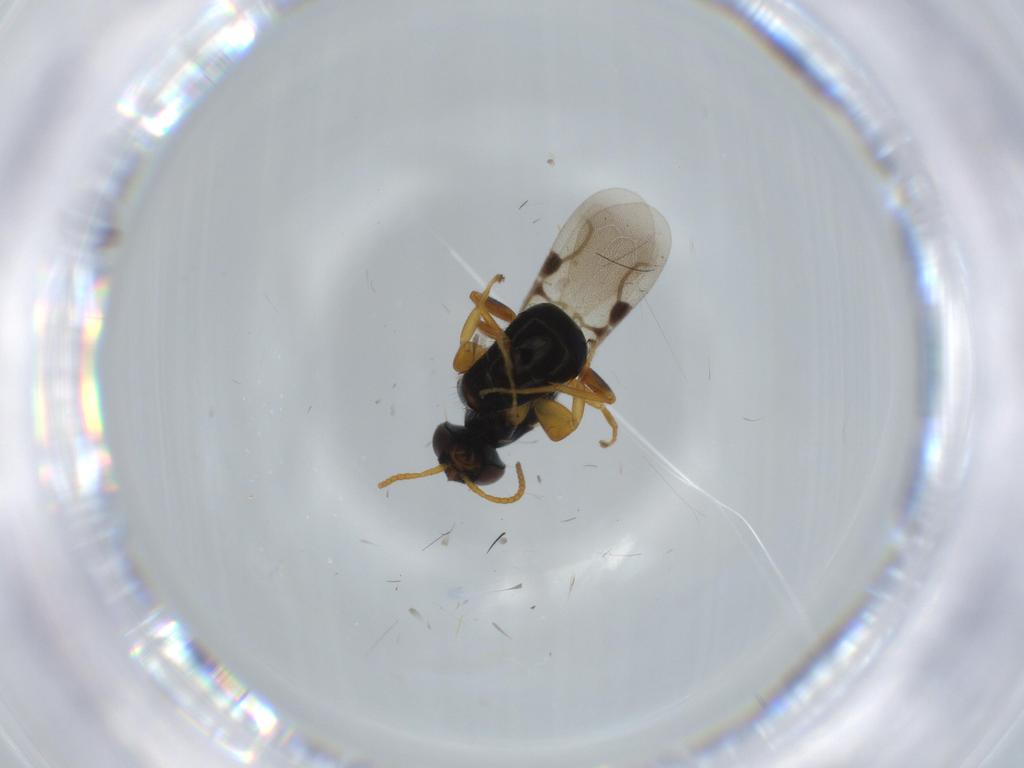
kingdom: Animalia
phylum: Arthropoda
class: Insecta
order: Hymenoptera
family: Bethylidae
